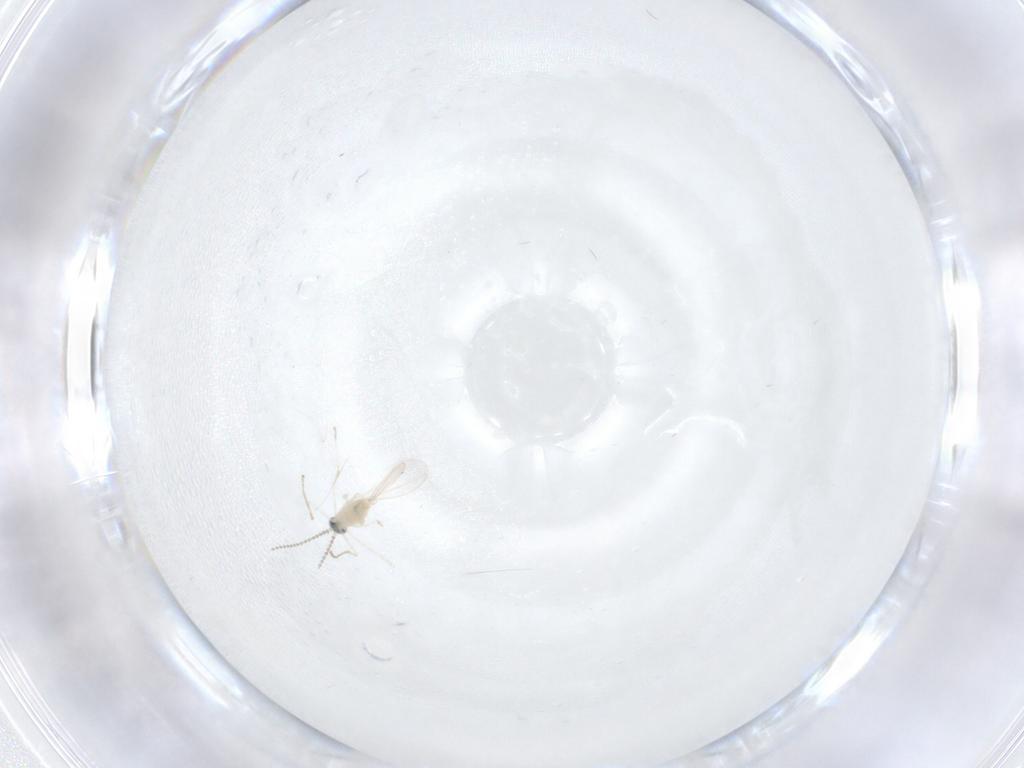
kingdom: Animalia
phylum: Arthropoda
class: Insecta
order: Diptera
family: Cecidomyiidae
